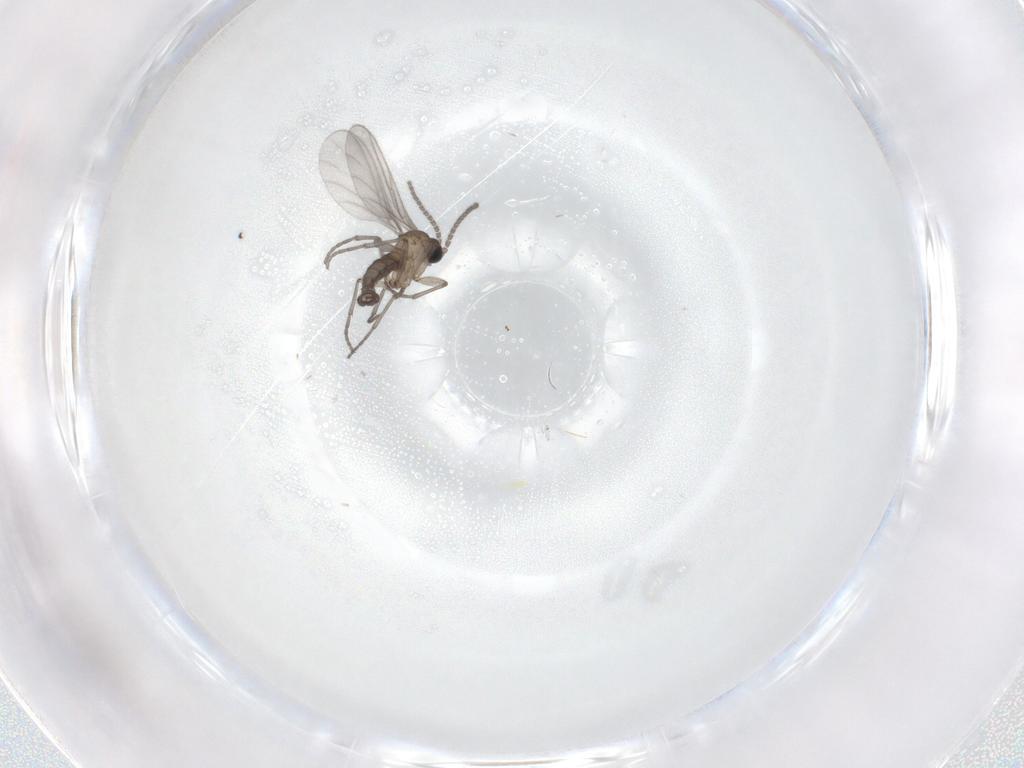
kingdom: Animalia
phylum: Arthropoda
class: Insecta
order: Diptera
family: Sciaridae
